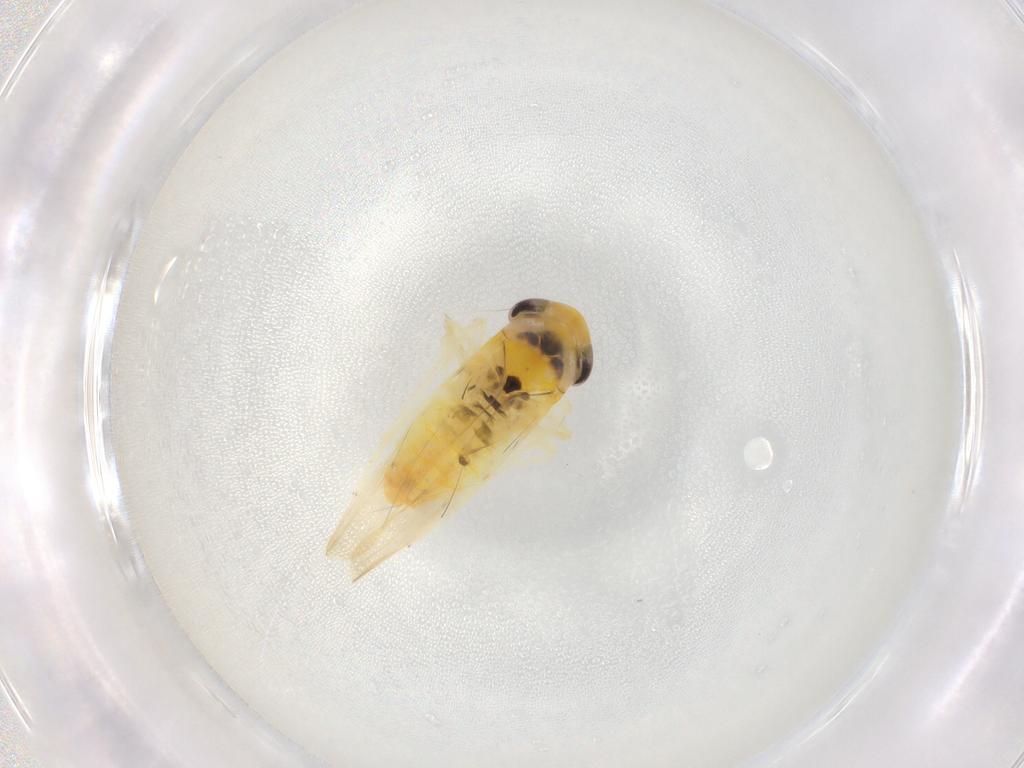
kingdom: Animalia
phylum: Arthropoda
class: Insecta
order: Hemiptera
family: Cicadellidae
